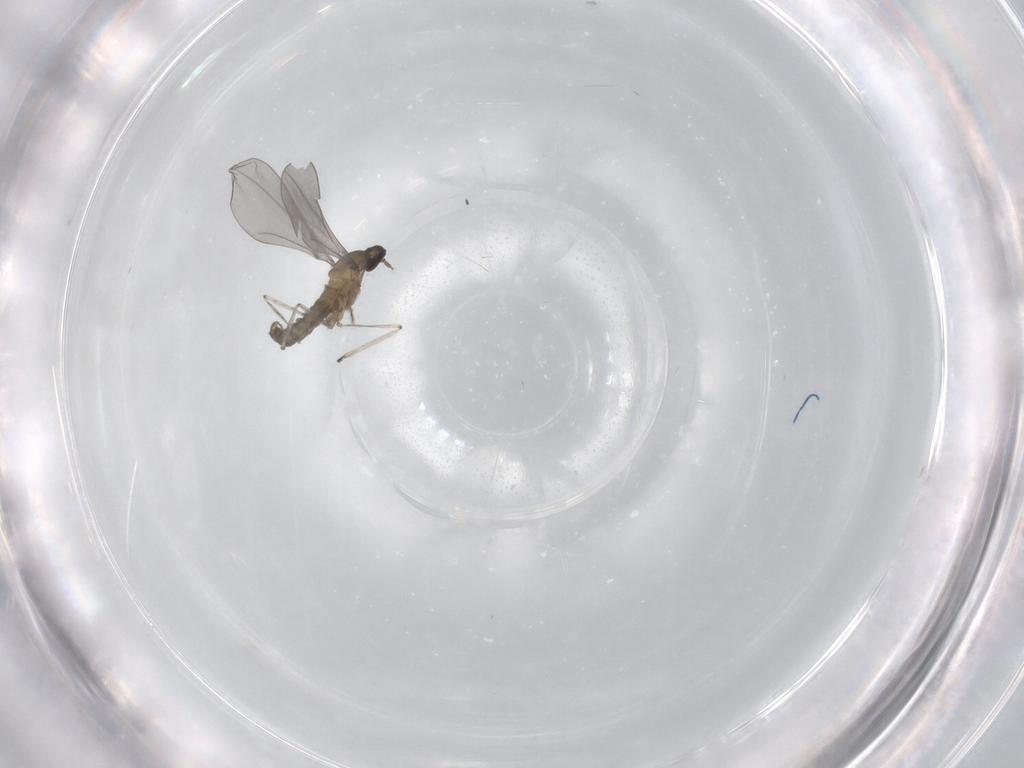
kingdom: Animalia
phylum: Arthropoda
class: Insecta
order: Diptera
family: Cecidomyiidae
